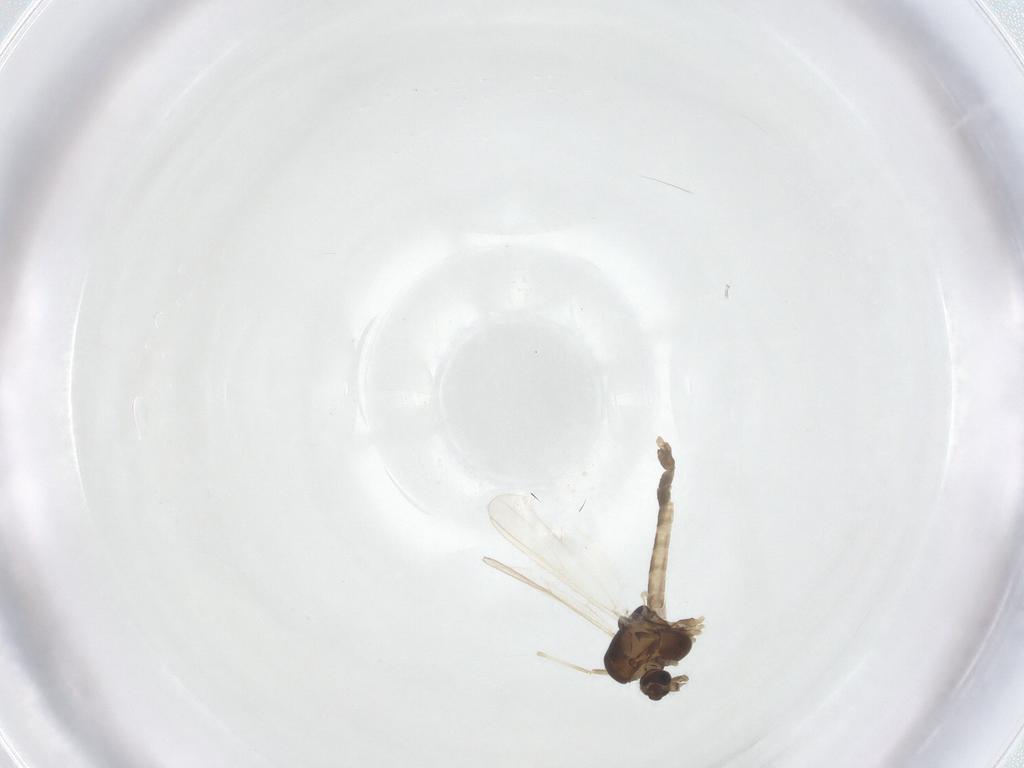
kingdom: Animalia
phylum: Arthropoda
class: Insecta
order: Diptera
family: Chironomidae
